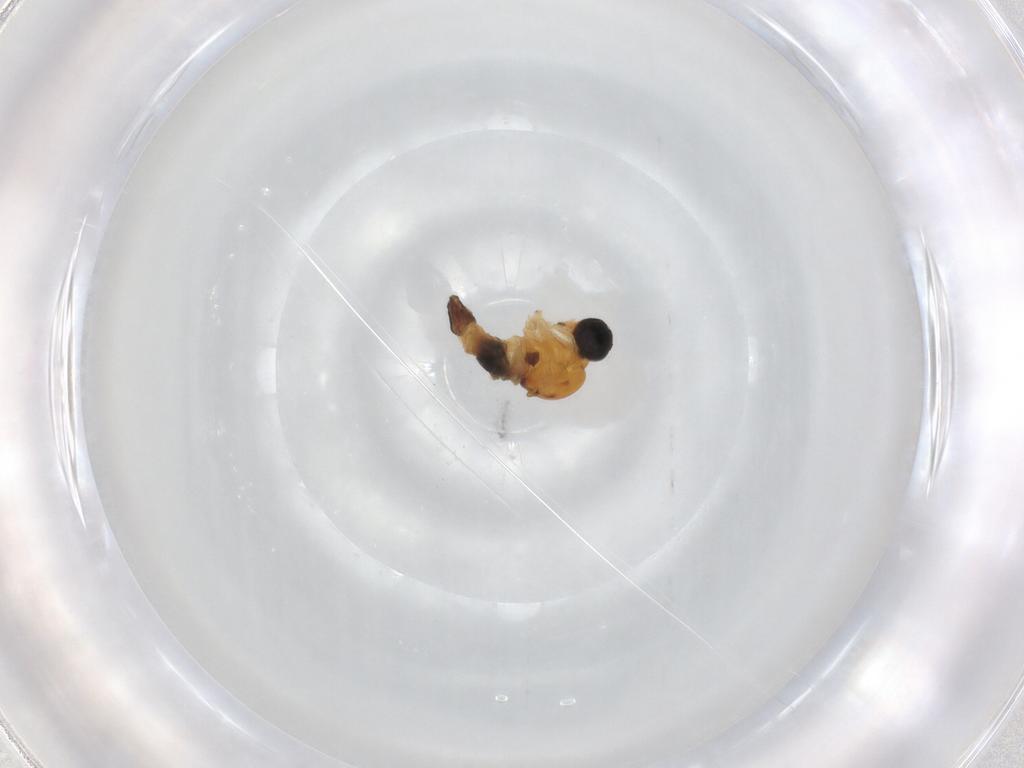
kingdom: Animalia
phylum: Arthropoda
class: Insecta
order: Diptera
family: Hybotidae
